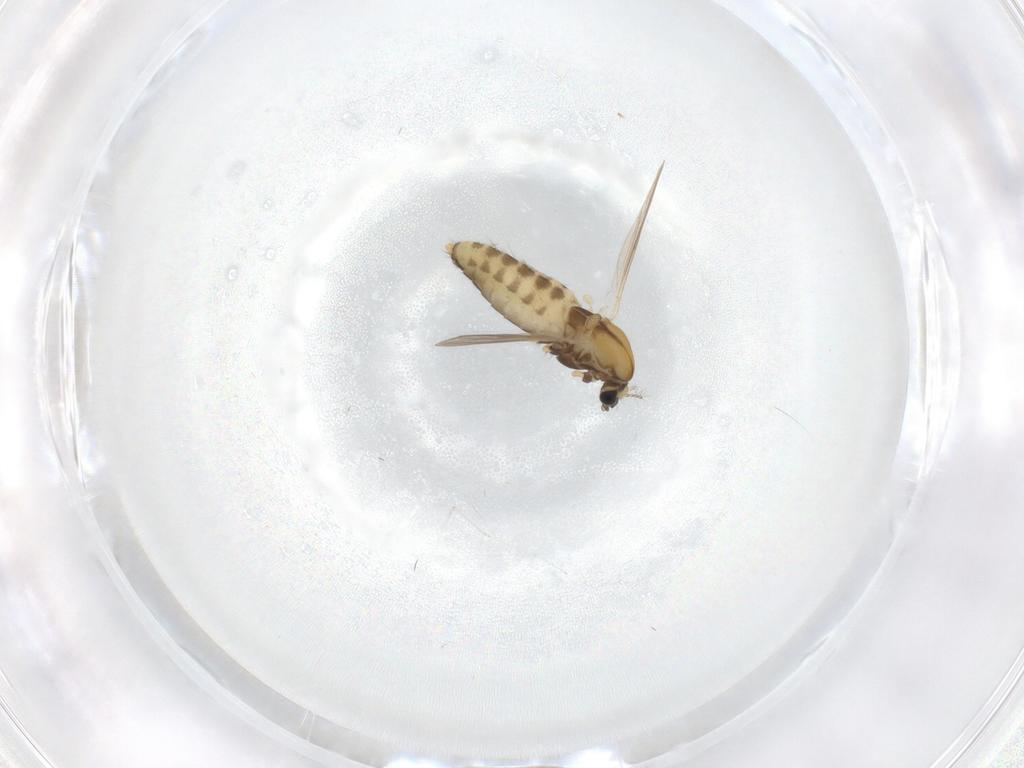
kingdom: Animalia
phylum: Arthropoda
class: Insecta
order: Diptera
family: Chironomidae
